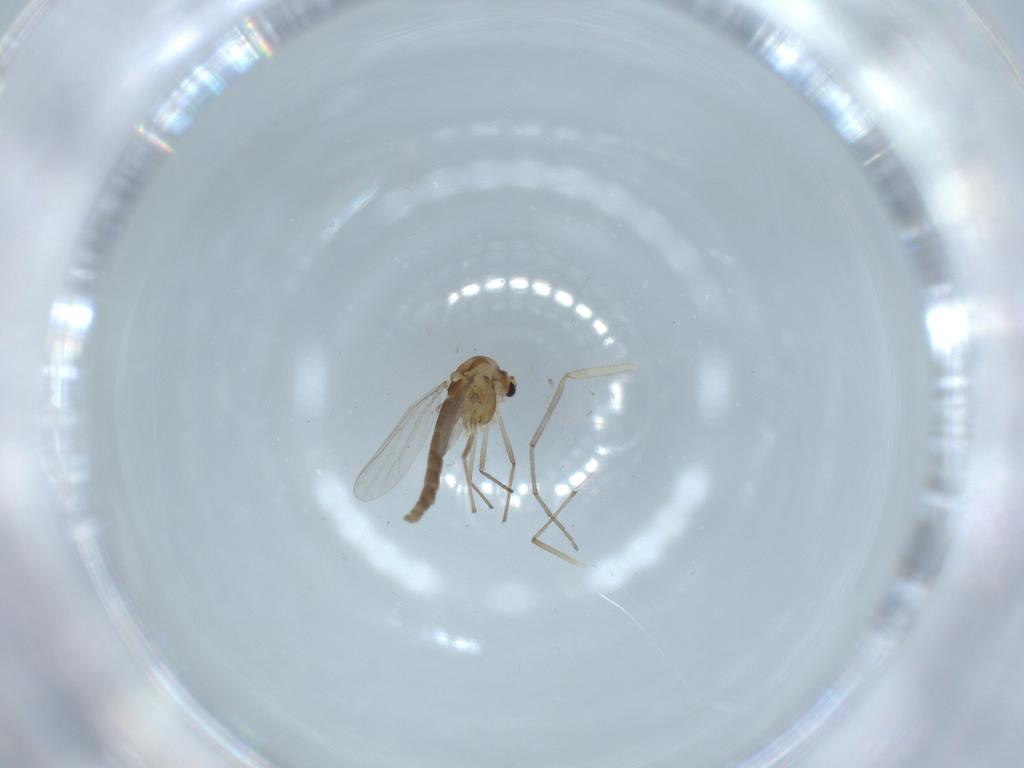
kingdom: Animalia
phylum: Arthropoda
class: Insecta
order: Diptera
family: Chironomidae
